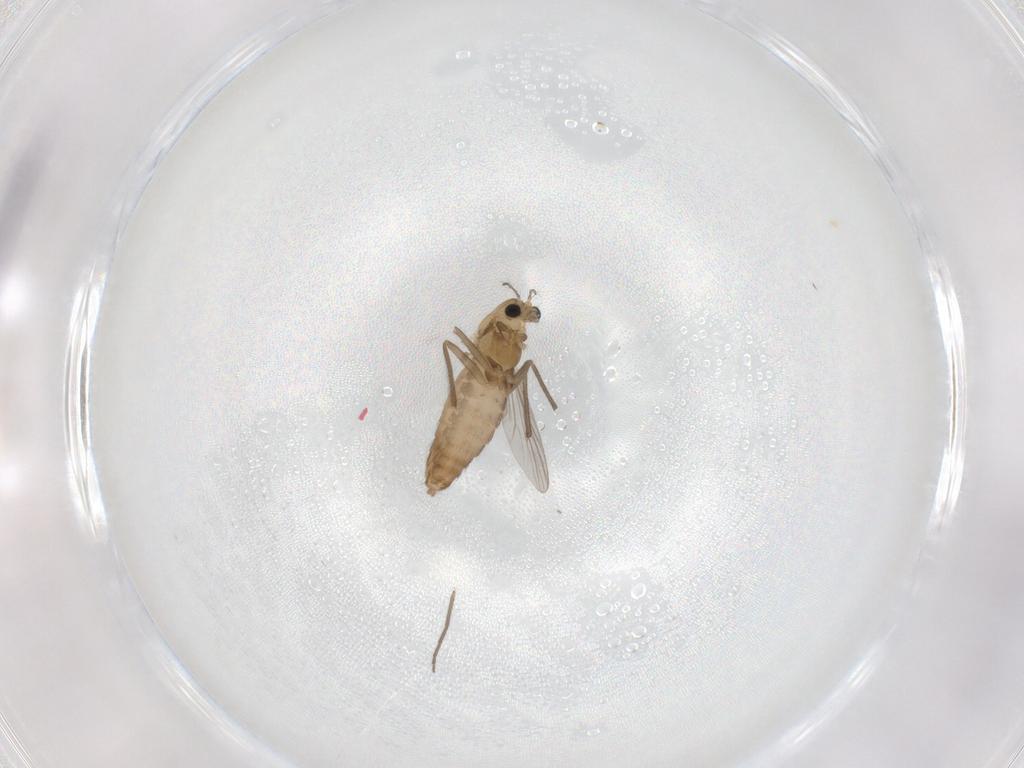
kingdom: Animalia
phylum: Arthropoda
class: Insecta
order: Diptera
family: Chironomidae
